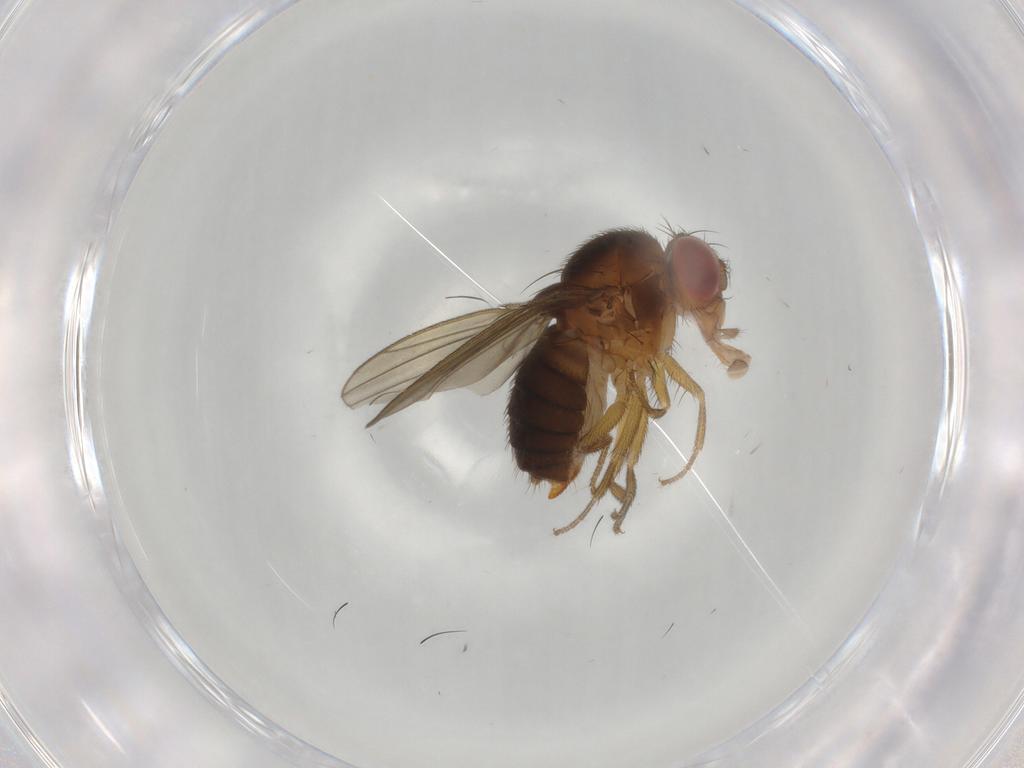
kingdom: Animalia
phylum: Arthropoda
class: Insecta
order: Diptera
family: Drosophilidae
